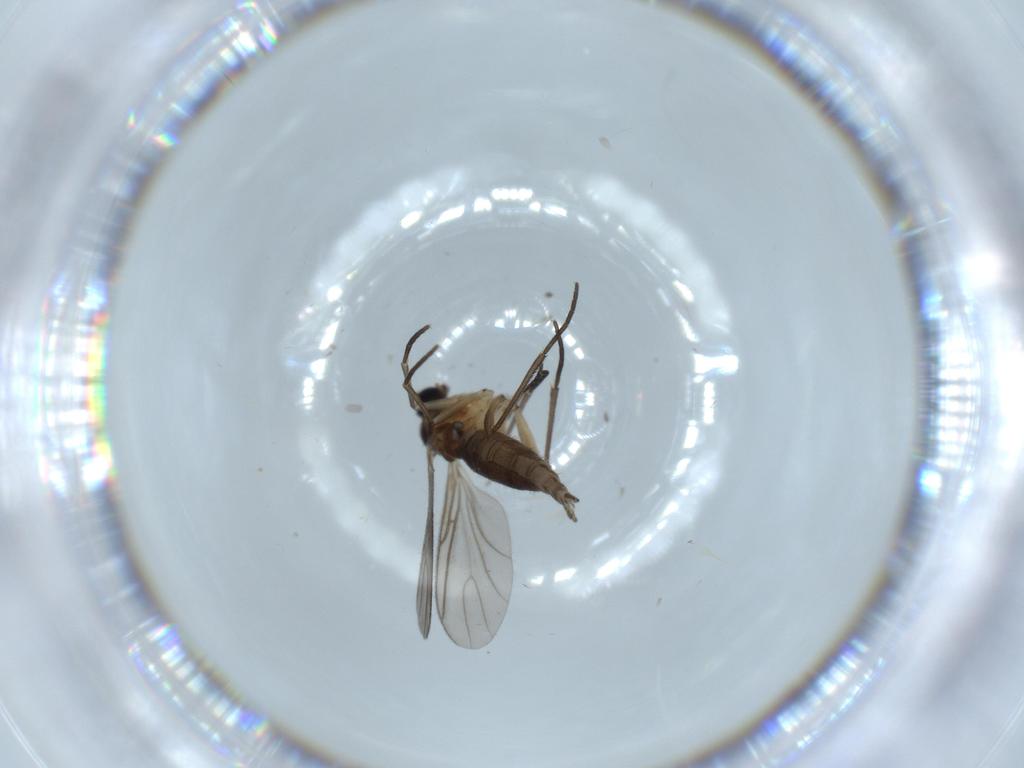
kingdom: Animalia
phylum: Arthropoda
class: Insecta
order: Diptera
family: Sciaridae
